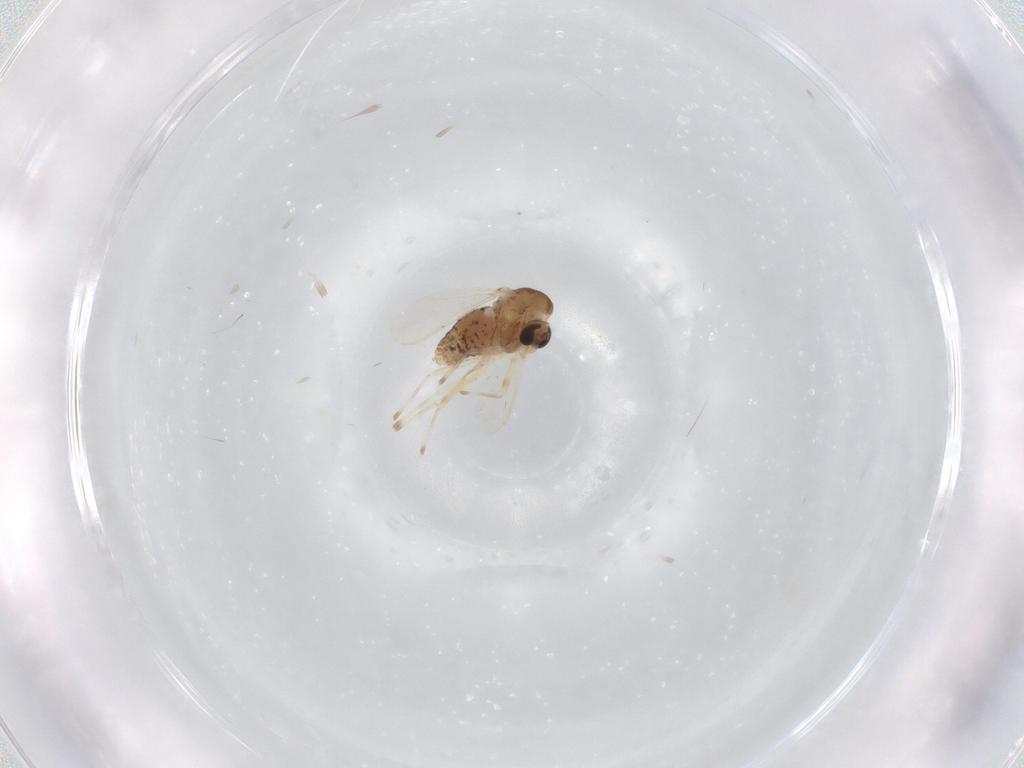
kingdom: Animalia
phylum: Arthropoda
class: Insecta
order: Diptera
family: Chironomidae
